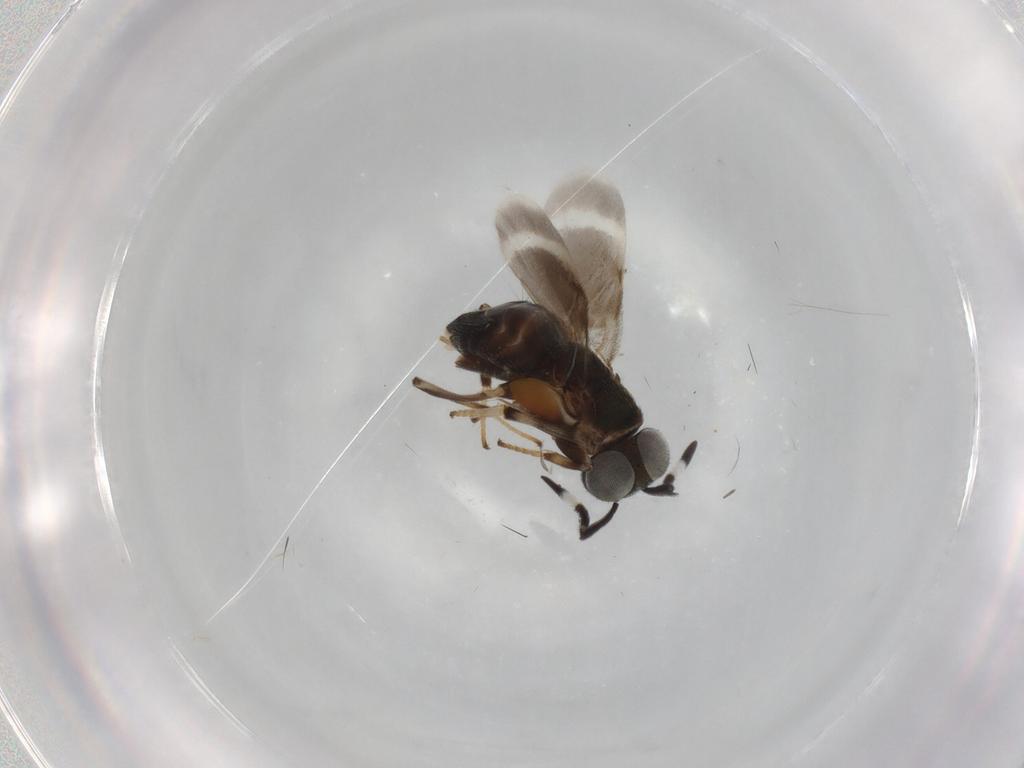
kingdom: Animalia
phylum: Arthropoda
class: Insecta
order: Hymenoptera
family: Encyrtidae
